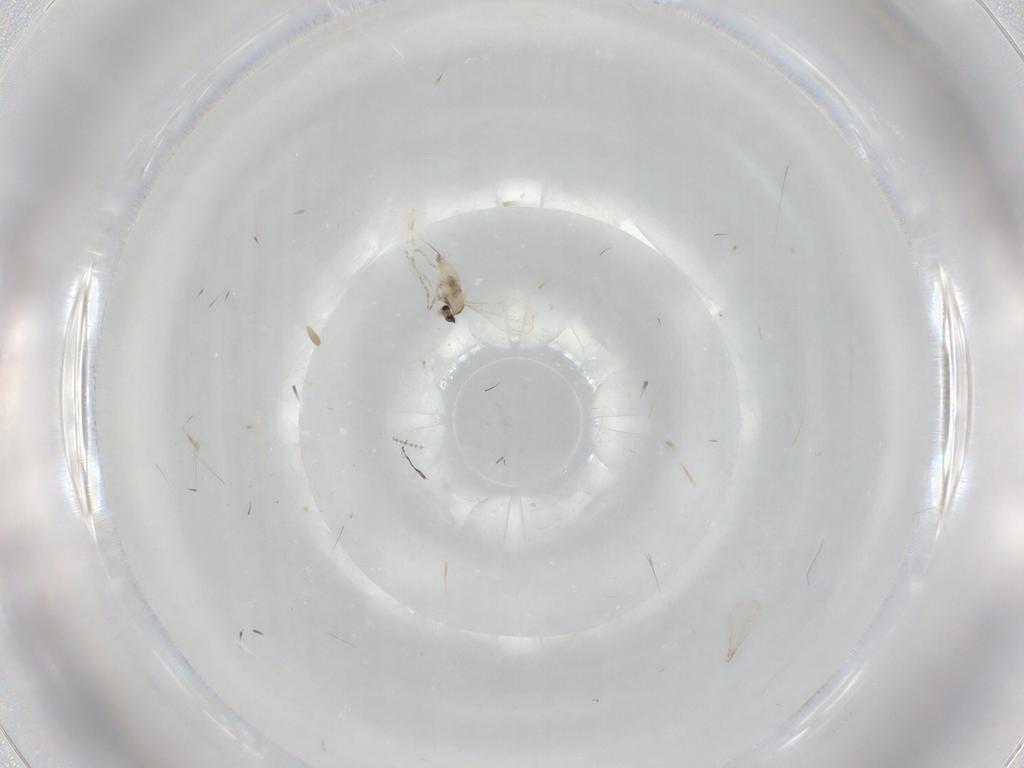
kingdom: Animalia
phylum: Arthropoda
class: Insecta
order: Diptera
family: Cecidomyiidae
